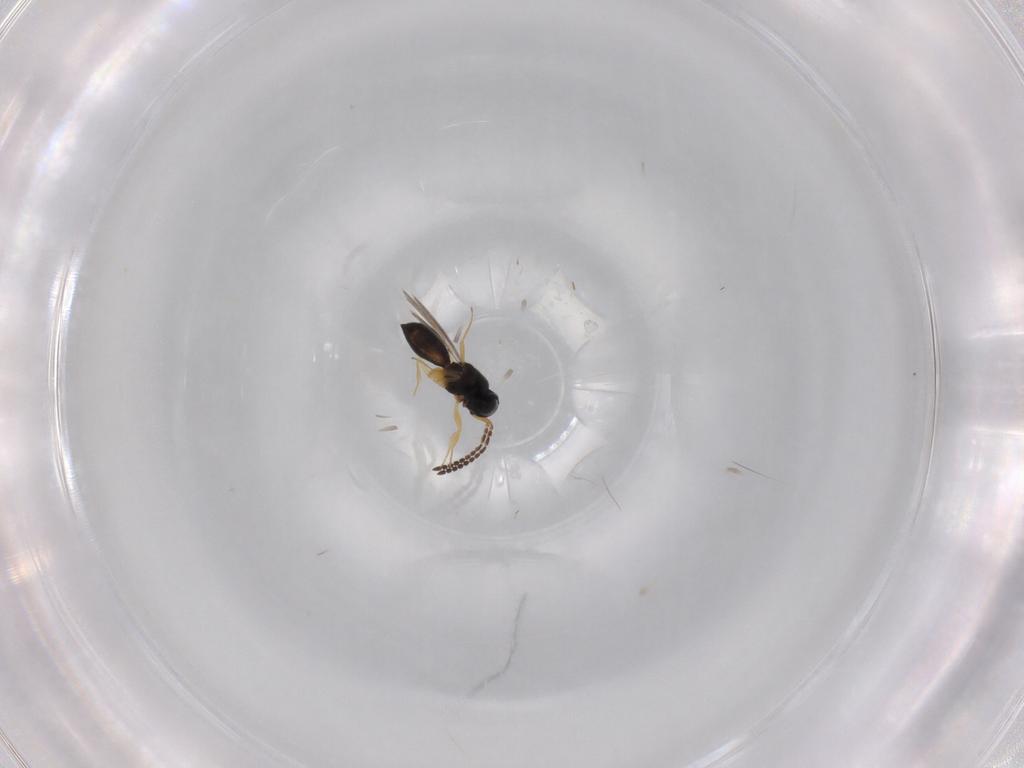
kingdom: Animalia
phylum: Arthropoda
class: Insecta
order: Hymenoptera
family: Scelionidae
